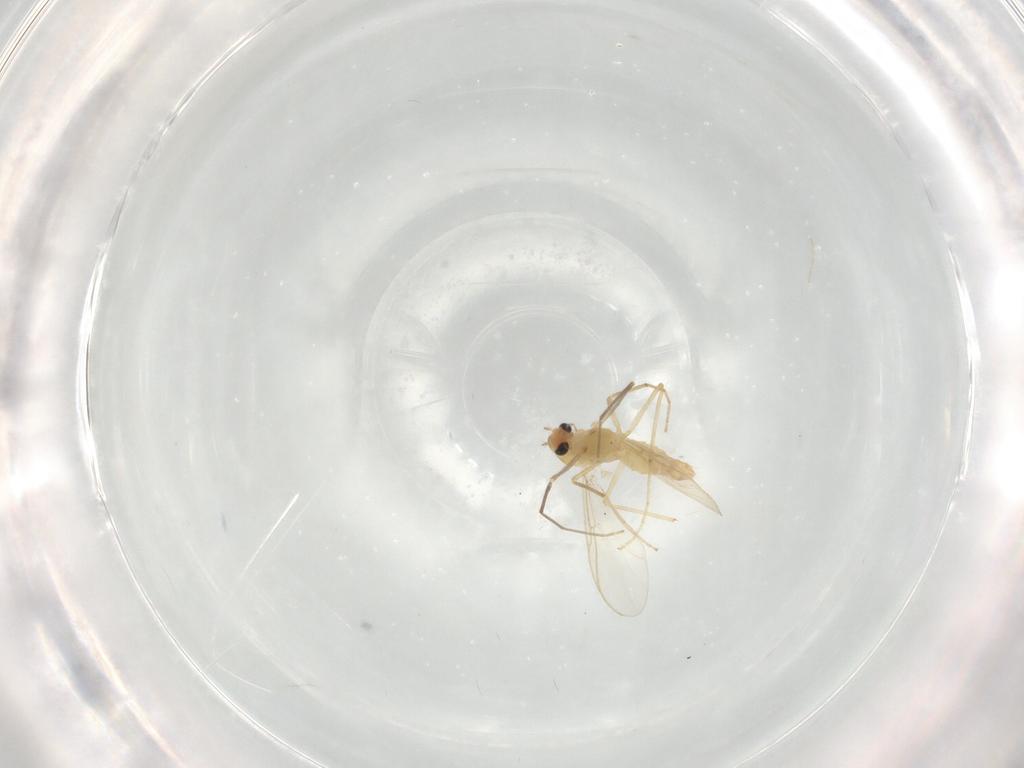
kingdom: Animalia
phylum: Arthropoda
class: Insecta
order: Diptera
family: Chironomidae
